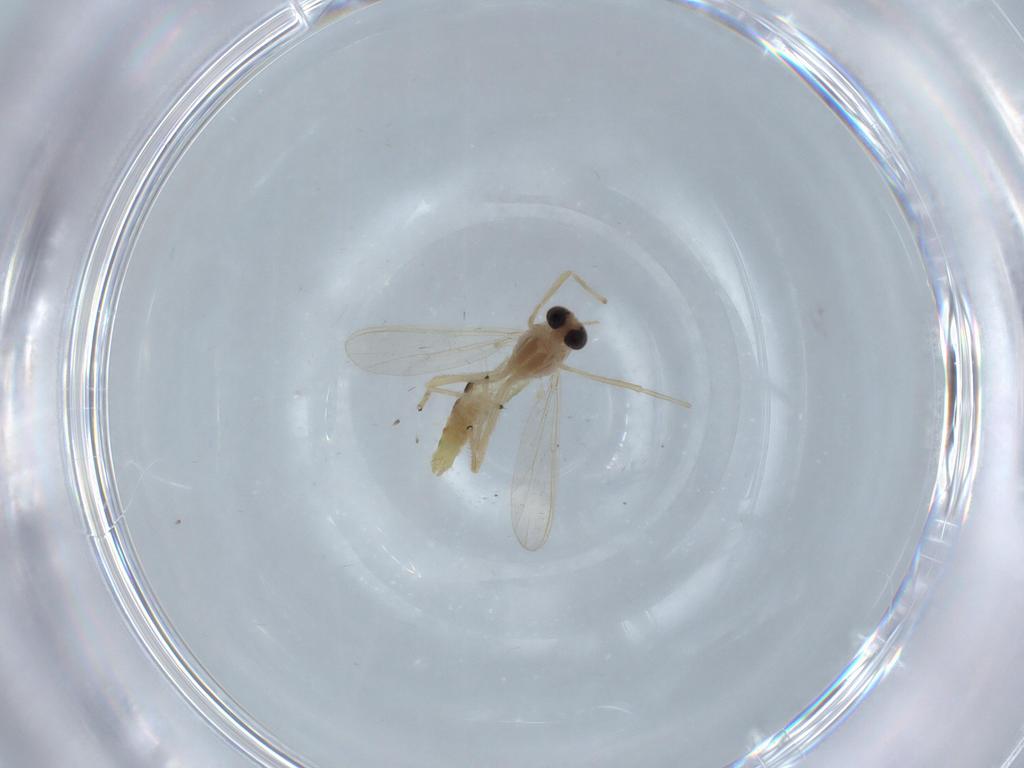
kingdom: Animalia
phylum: Arthropoda
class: Insecta
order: Diptera
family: Chironomidae
